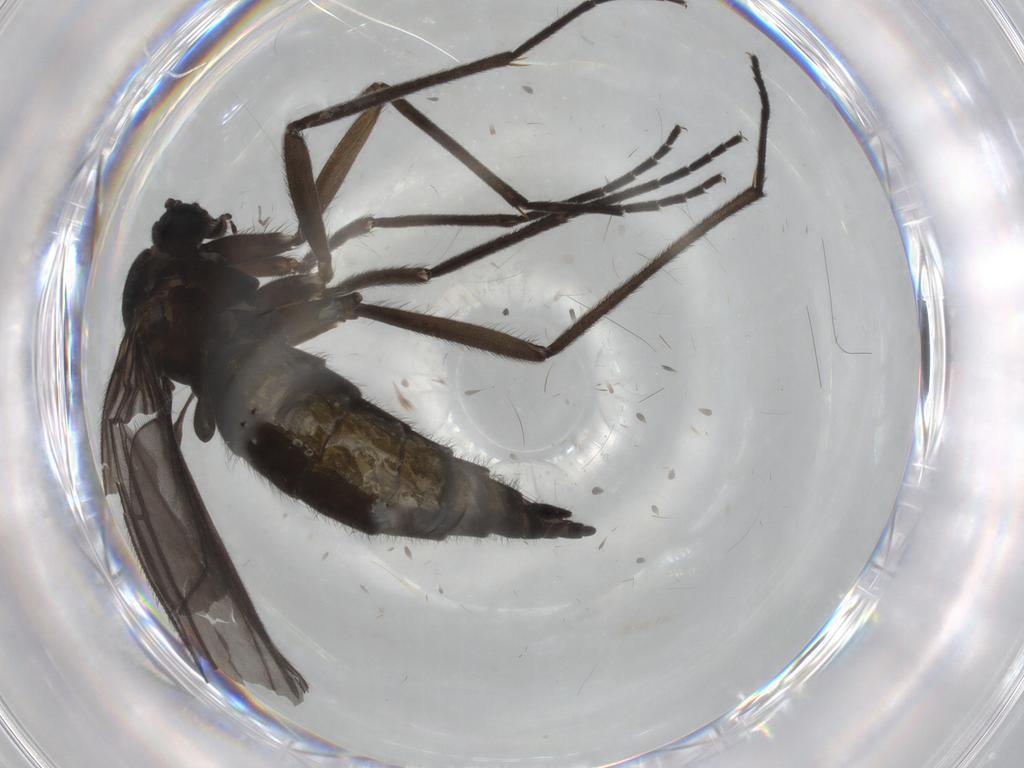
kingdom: Animalia
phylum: Arthropoda
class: Insecta
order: Diptera
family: Sciaridae
